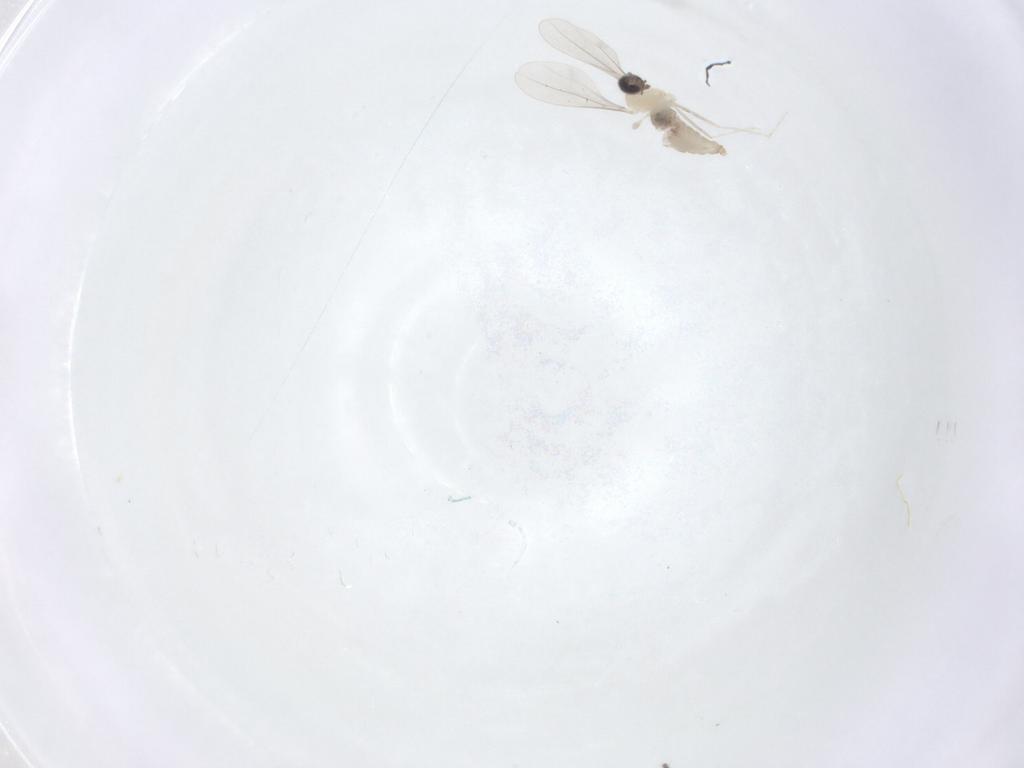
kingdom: Animalia
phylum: Arthropoda
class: Insecta
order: Diptera
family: Cecidomyiidae
